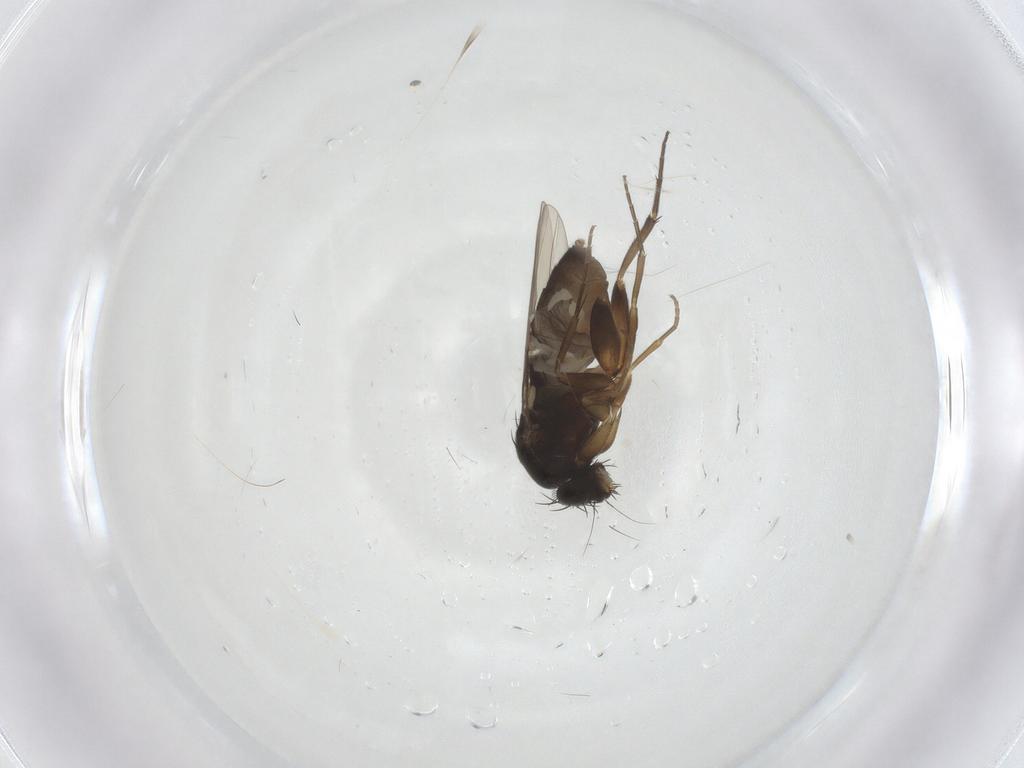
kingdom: Animalia
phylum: Arthropoda
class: Insecta
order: Diptera
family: Phoridae
